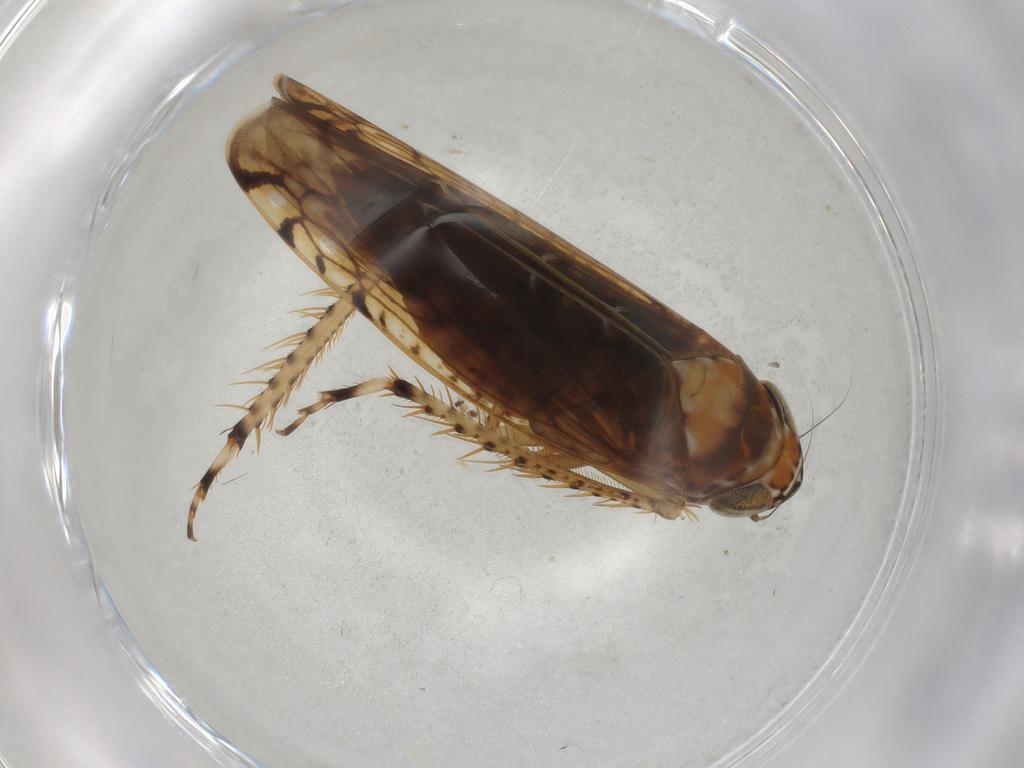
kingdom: Animalia
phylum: Arthropoda
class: Insecta
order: Hemiptera
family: Cicadellidae
